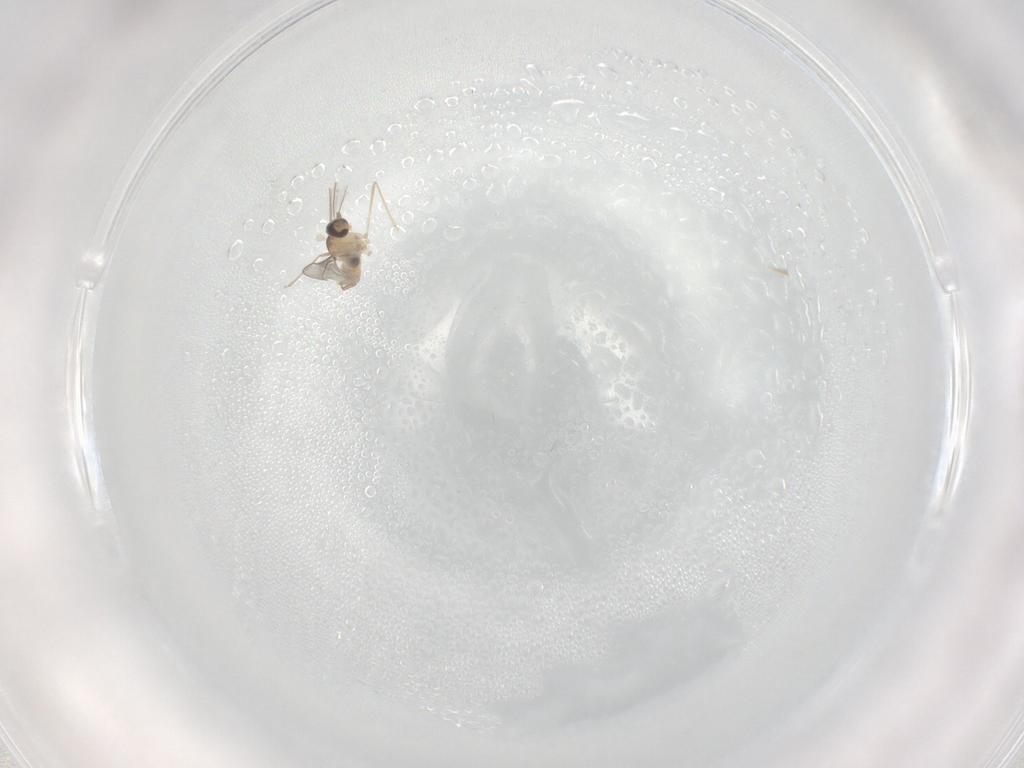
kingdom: Animalia
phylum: Arthropoda
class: Insecta
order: Diptera
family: Cecidomyiidae
